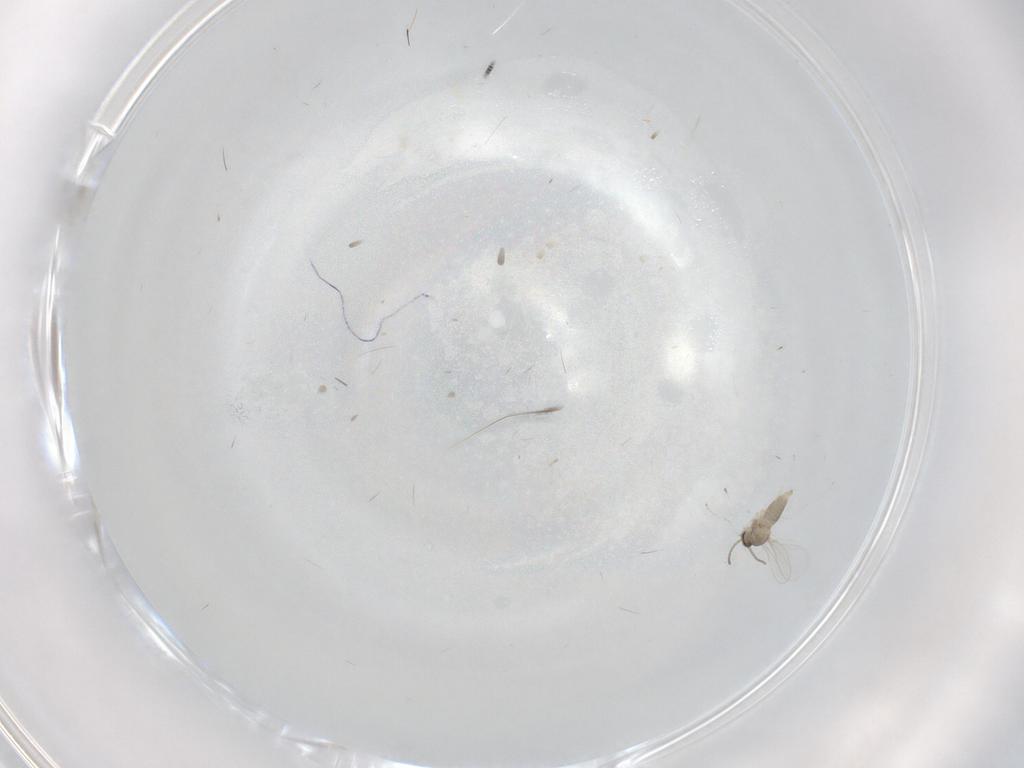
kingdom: Animalia
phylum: Arthropoda
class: Insecta
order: Diptera
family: Cecidomyiidae
